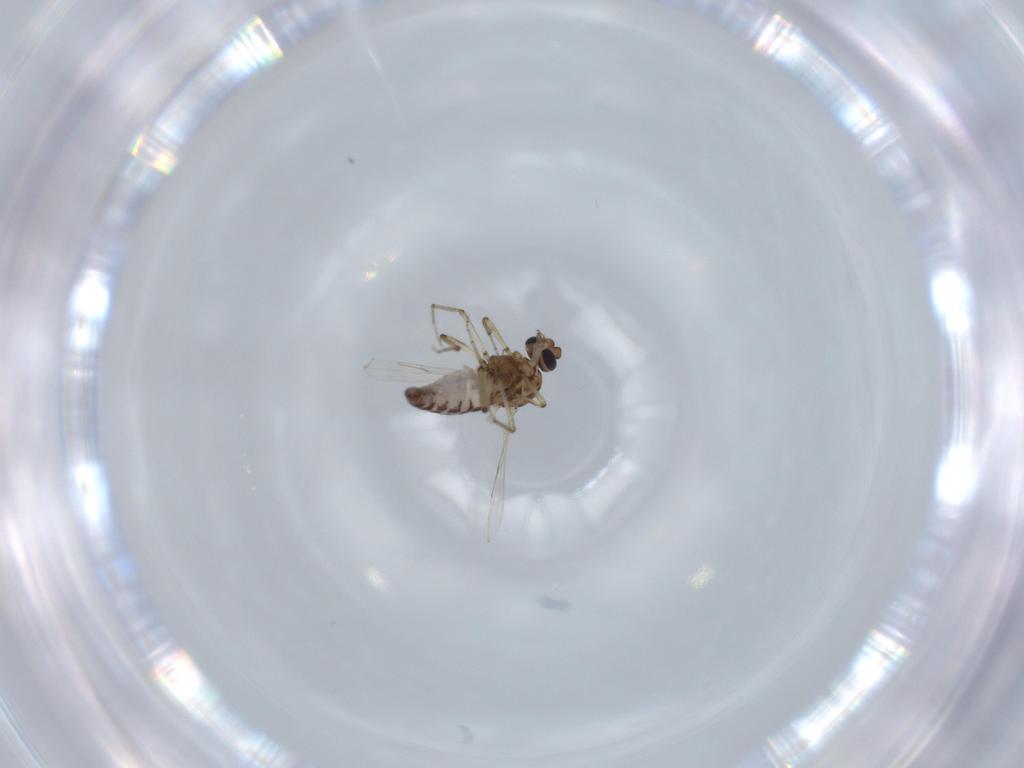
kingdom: Animalia
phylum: Arthropoda
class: Insecta
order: Diptera
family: Ceratopogonidae
